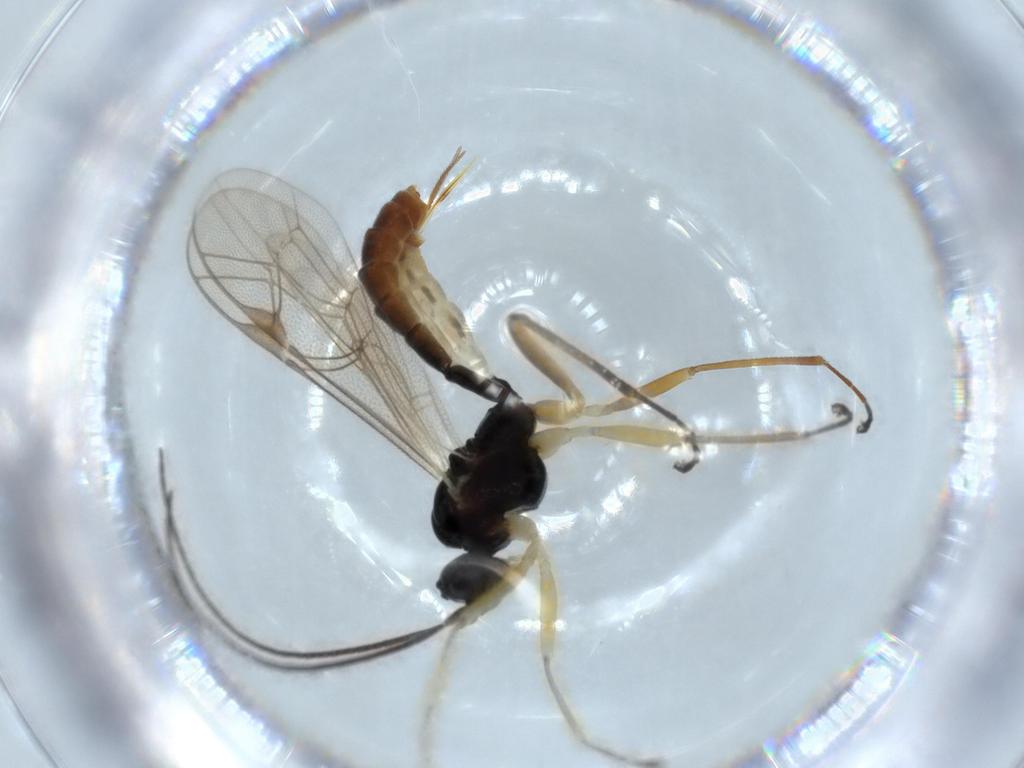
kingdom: Animalia
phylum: Arthropoda
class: Insecta
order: Hymenoptera
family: Ichneumonidae
